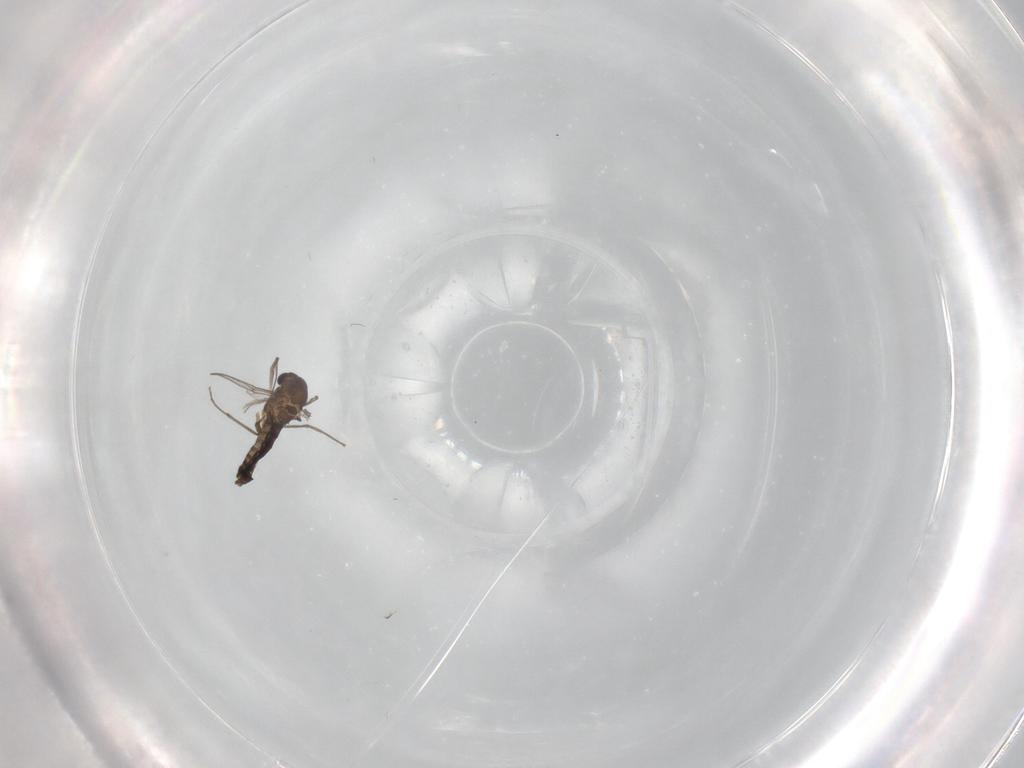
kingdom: Animalia
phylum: Arthropoda
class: Insecta
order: Diptera
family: Chironomidae
